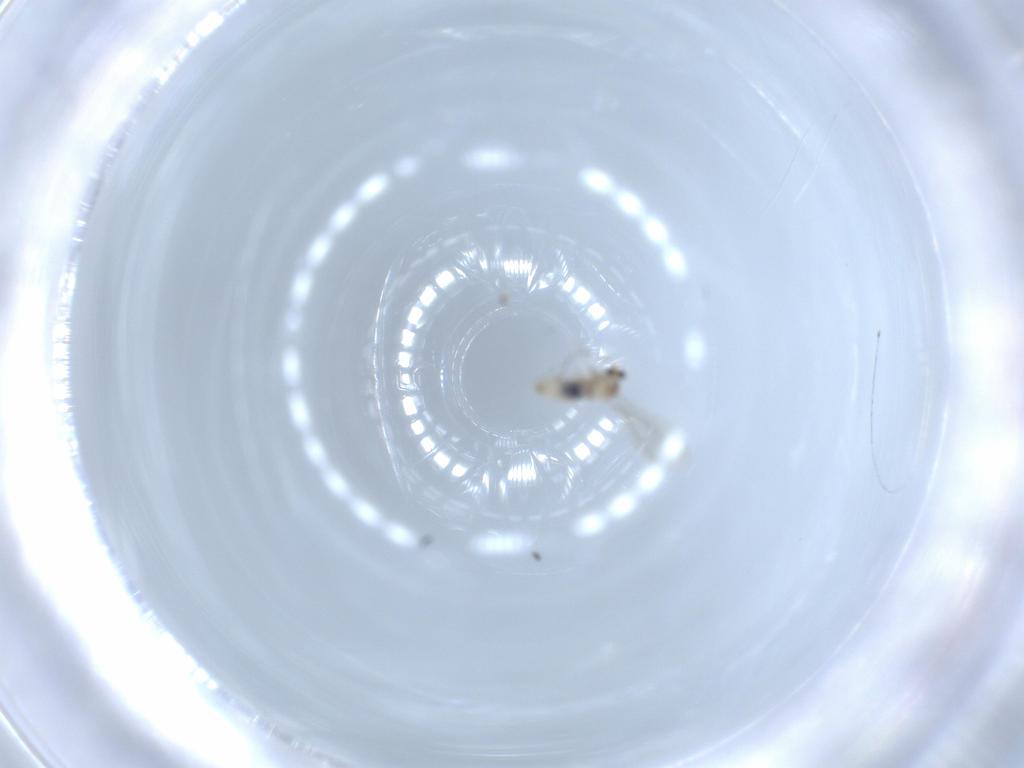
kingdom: Animalia
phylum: Arthropoda
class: Insecta
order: Diptera
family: Cecidomyiidae
